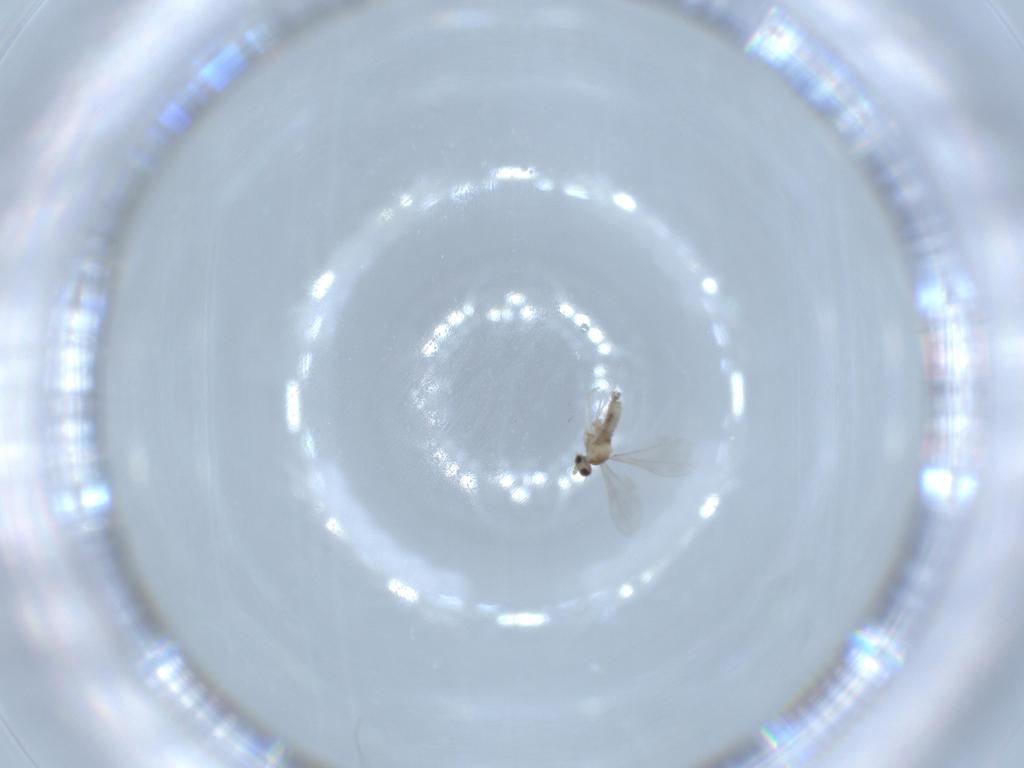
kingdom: Animalia
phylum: Arthropoda
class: Insecta
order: Diptera
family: Cecidomyiidae
